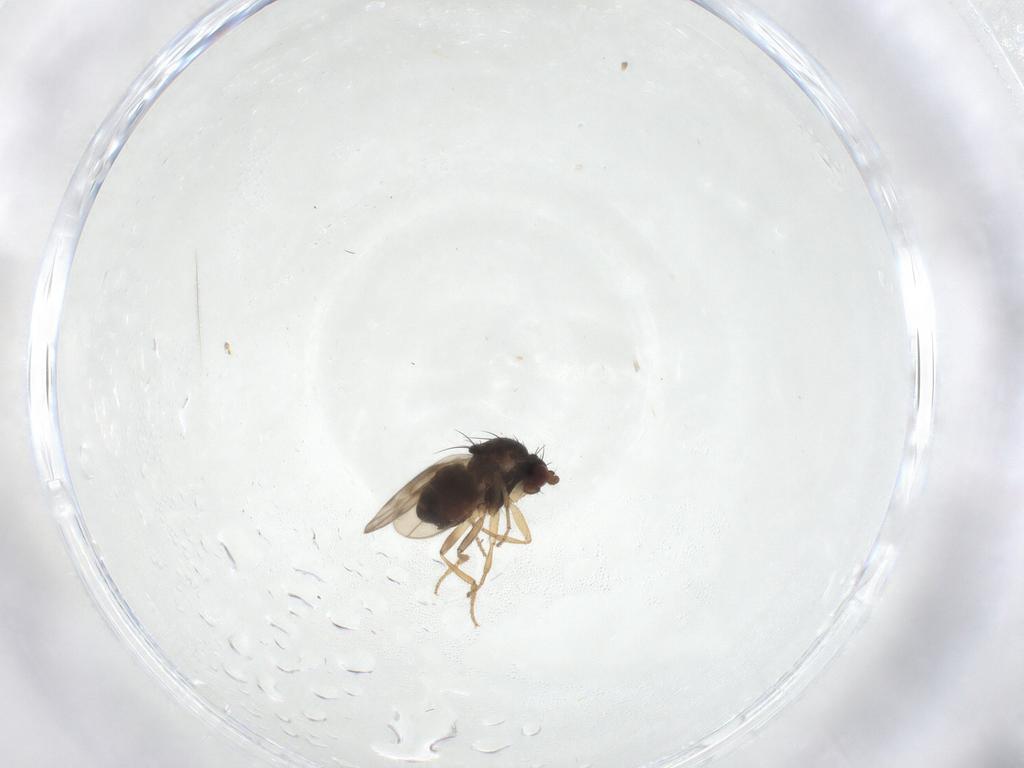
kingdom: Animalia
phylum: Arthropoda
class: Insecta
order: Diptera
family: Sphaeroceridae
